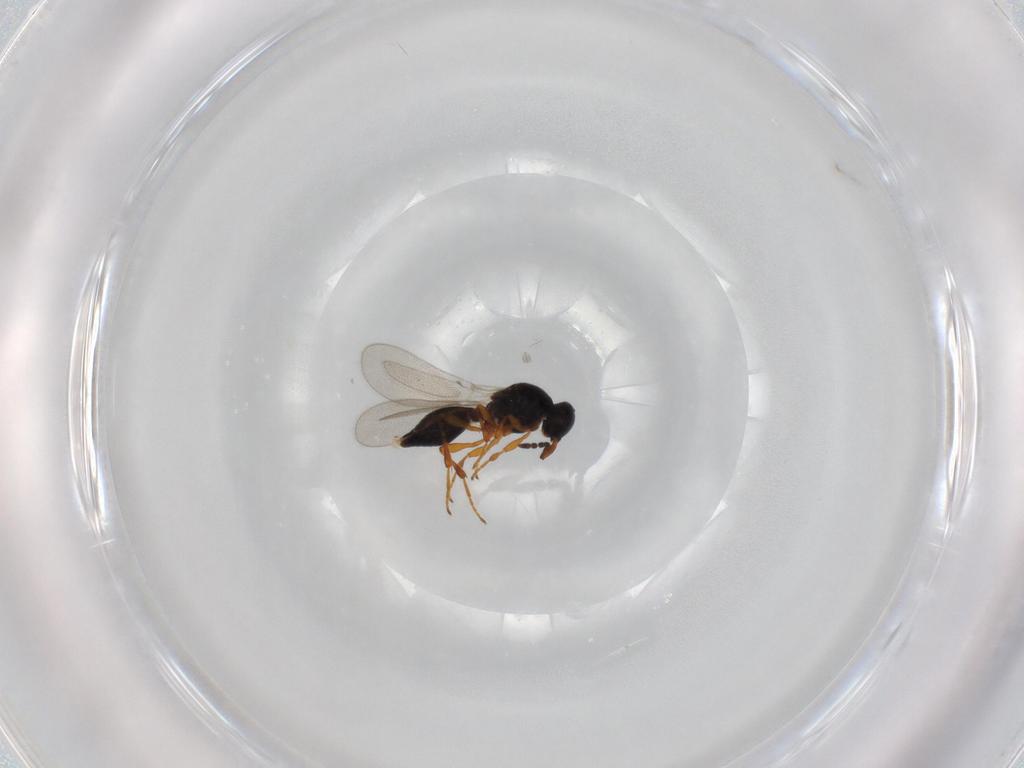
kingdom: Animalia
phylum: Arthropoda
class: Insecta
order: Hymenoptera
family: Platygastridae
